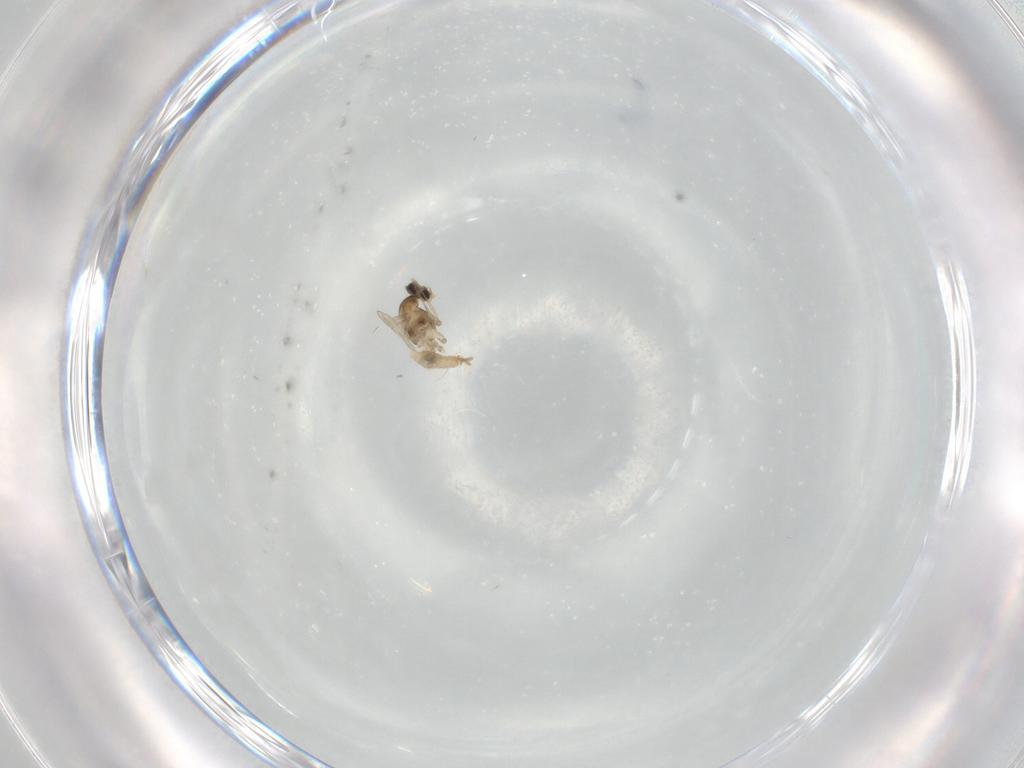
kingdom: Animalia
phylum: Arthropoda
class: Insecta
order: Diptera
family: Cecidomyiidae
